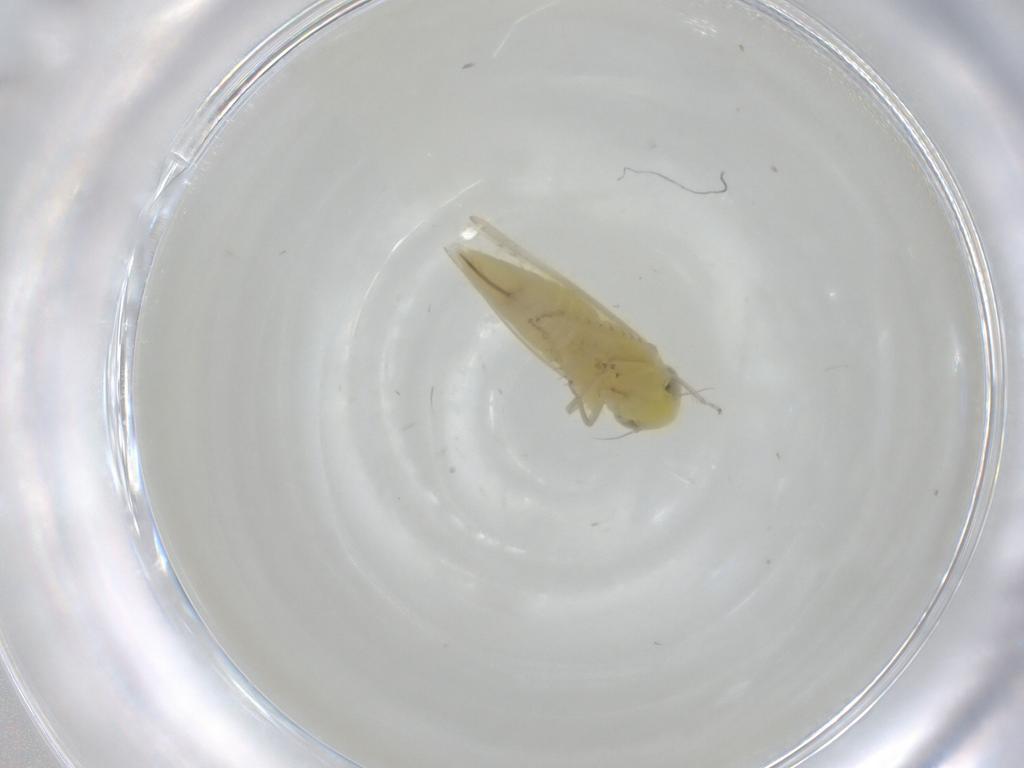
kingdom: Animalia
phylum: Arthropoda
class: Insecta
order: Hemiptera
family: Cicadellidae
